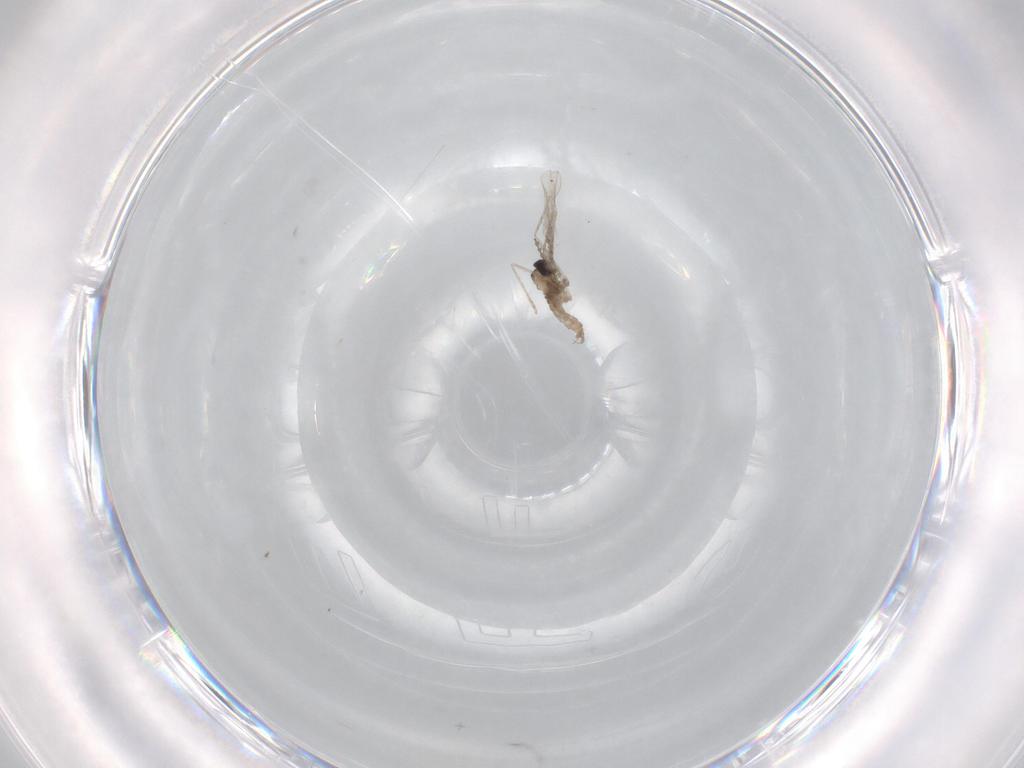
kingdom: Animalia
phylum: Arthropoda
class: Insecta
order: Diptera
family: Cecidomyiidae
